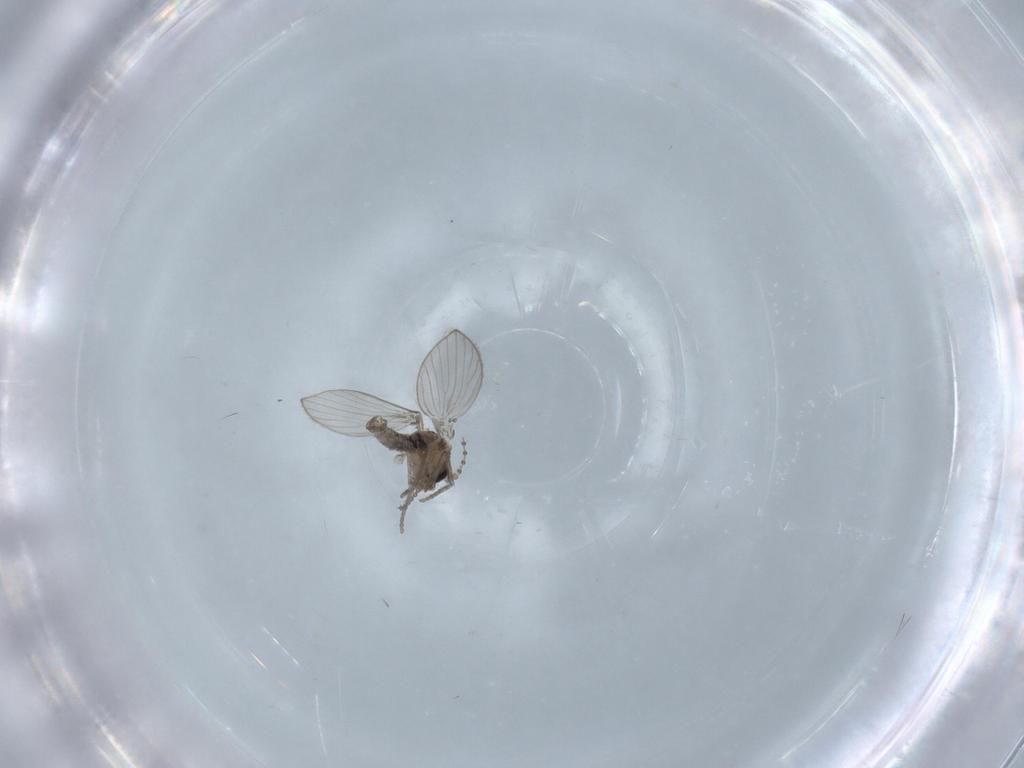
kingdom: Animalia
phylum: Arthropoda
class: Insecta
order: Diptera
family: Psychodidae
